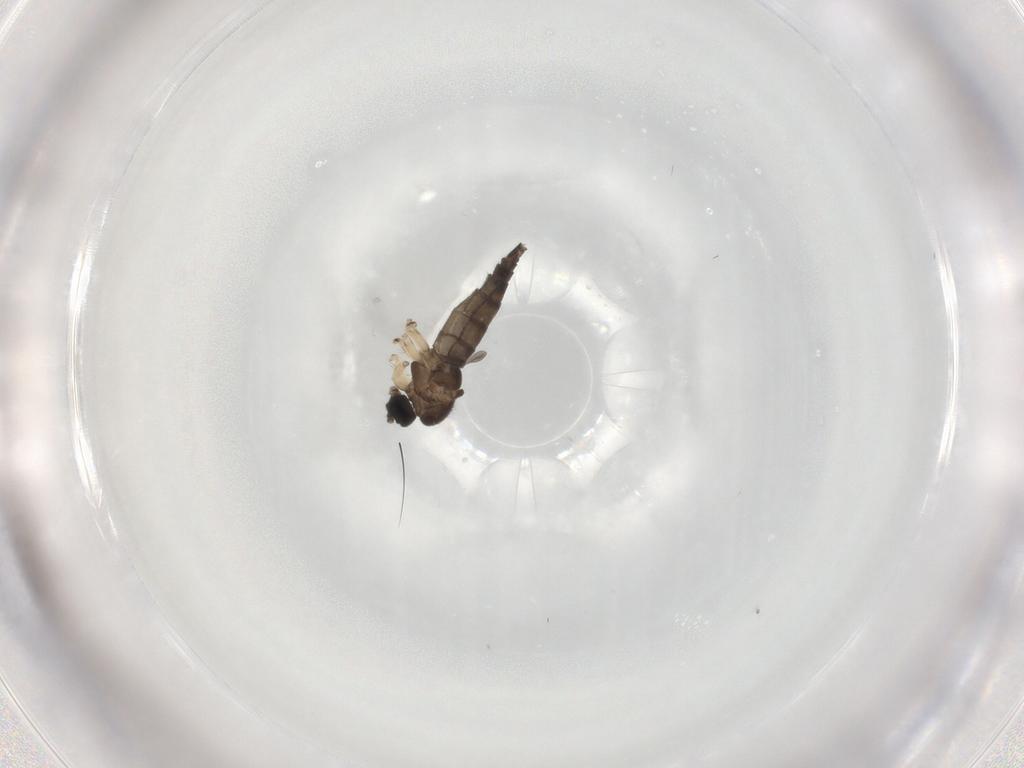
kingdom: Animalia
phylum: Arthropoda
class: Insecta
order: Diptera
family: Sciaridae
